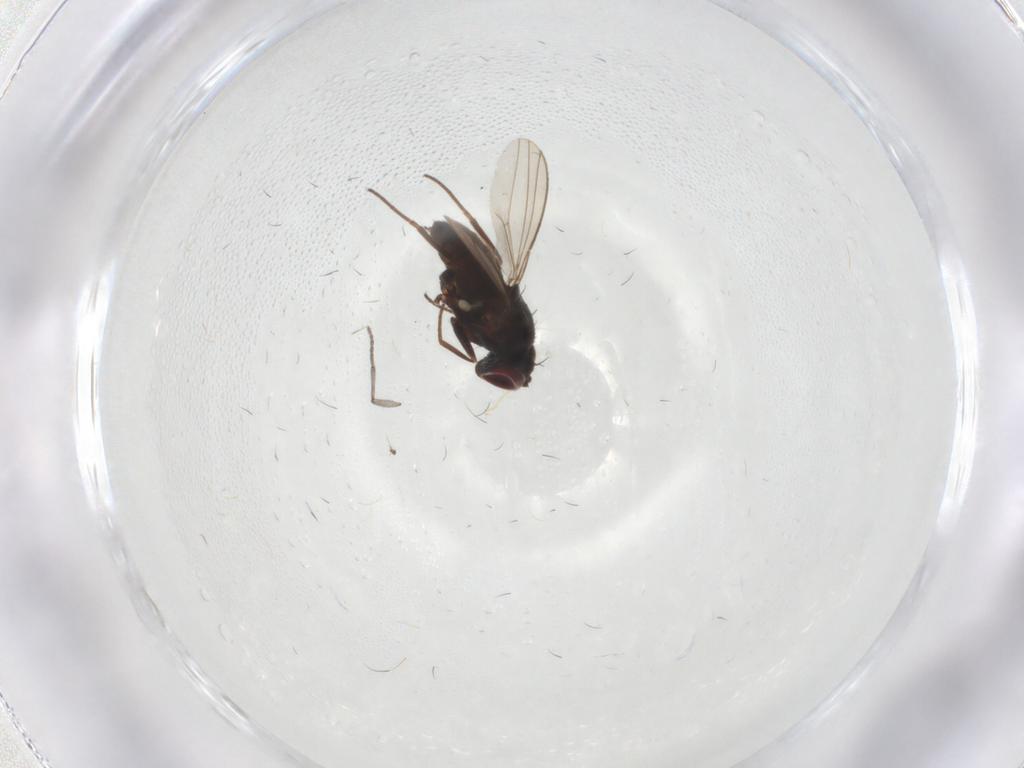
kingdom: Animalia
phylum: Arthropoda
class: Insecta
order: Diptera
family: Dolichopodidae
